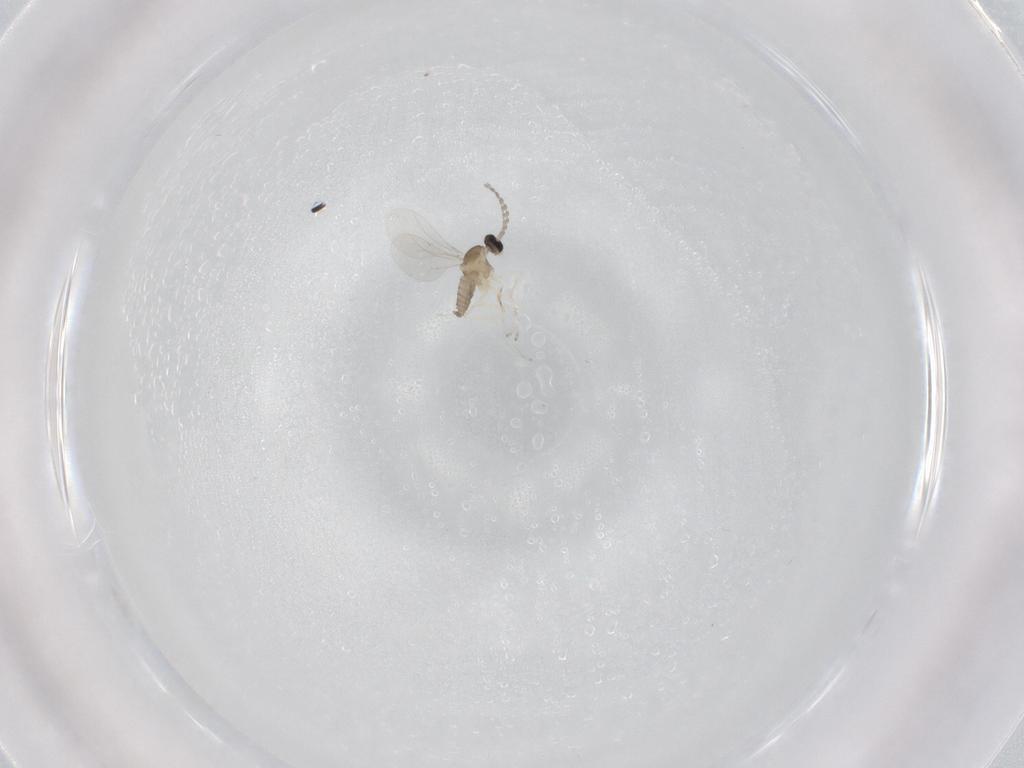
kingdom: Animalia
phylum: Arthropoda
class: Insecta
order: Diptera
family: Cecidomyiidae
